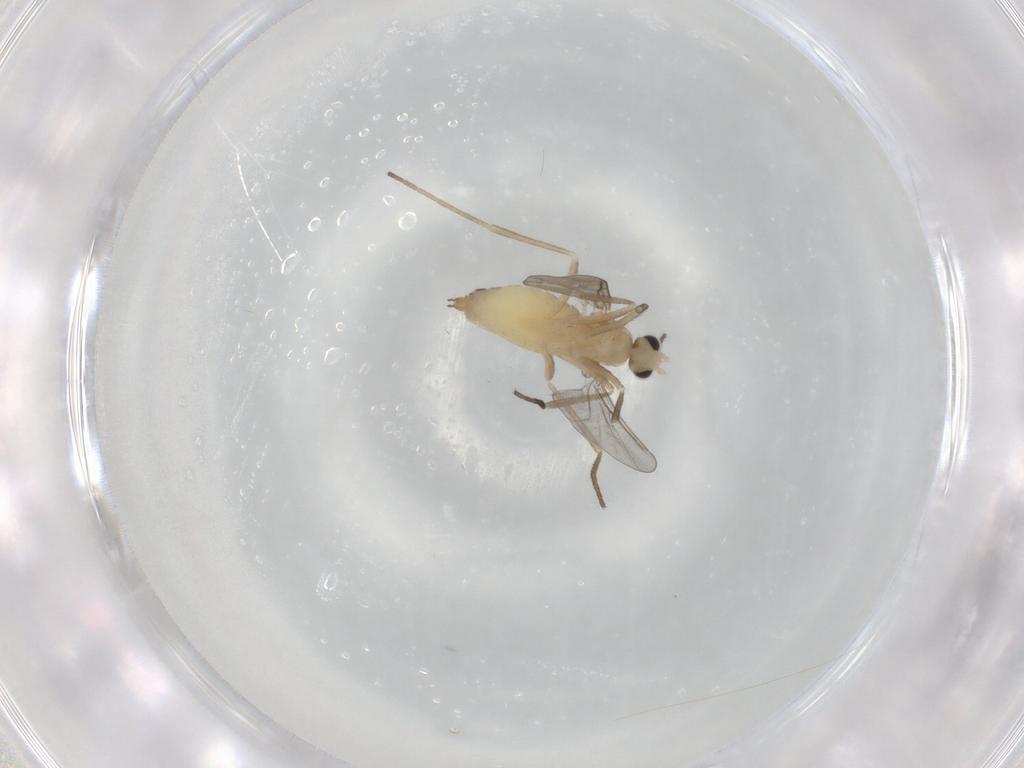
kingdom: Animalia
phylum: Arthropoda
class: Insecta
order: Diptera
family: Cecidomyiidae
